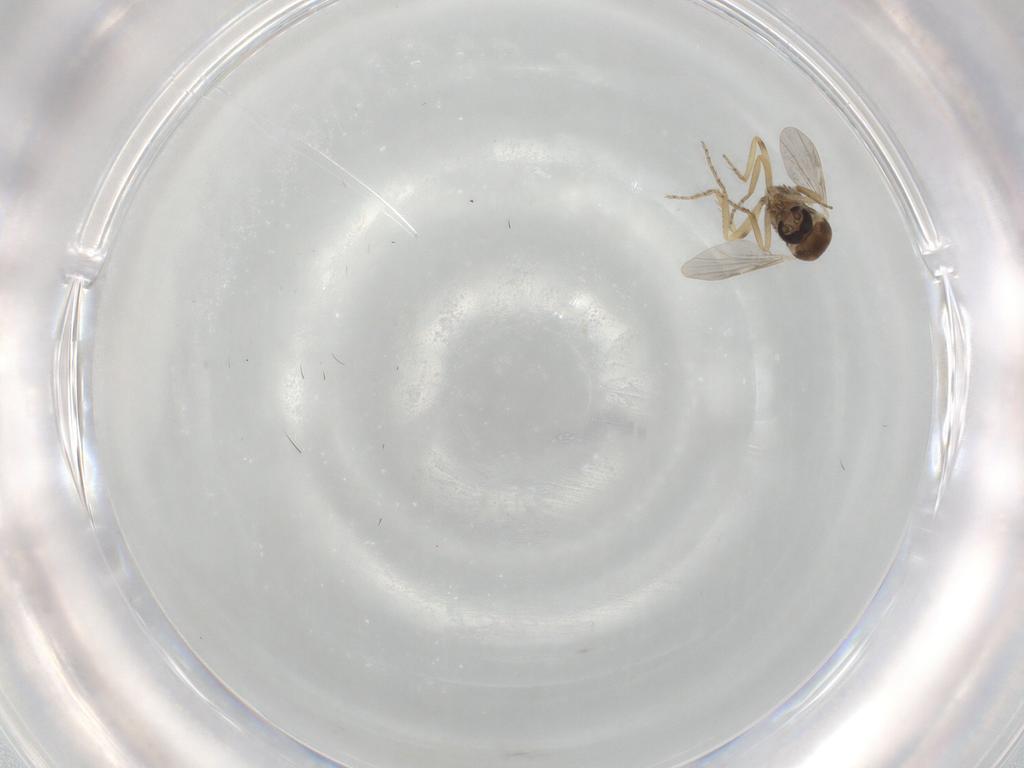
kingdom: Animalia
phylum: Arthropoda
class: Insecta
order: Diptera
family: Ceratopogonidae
